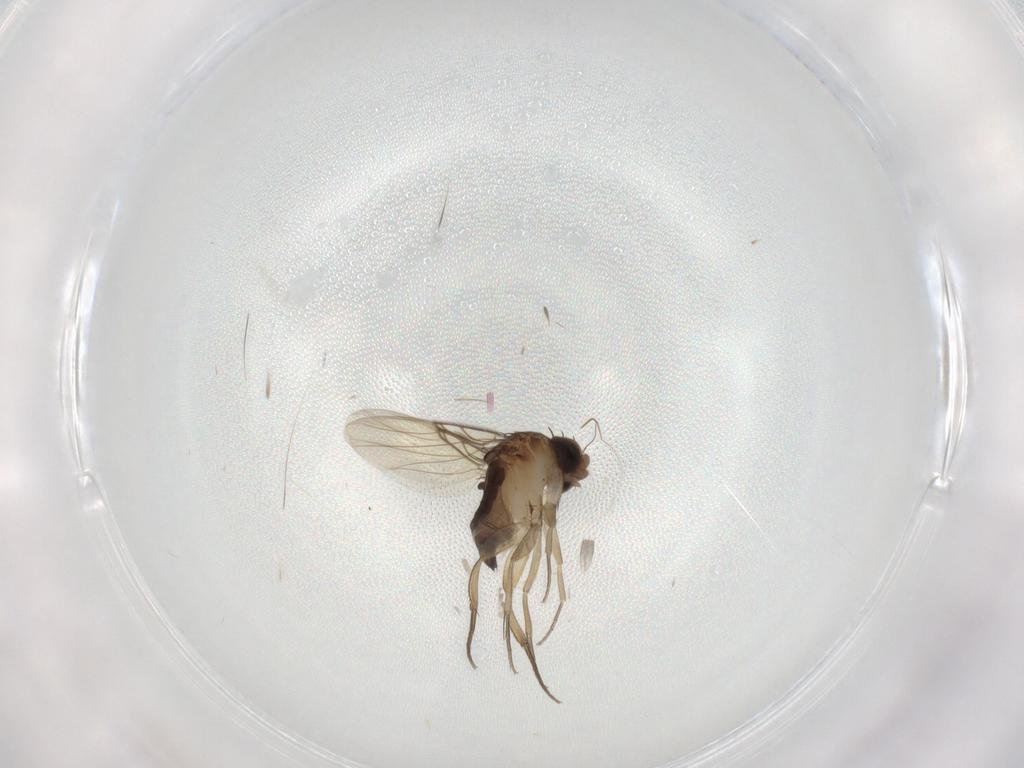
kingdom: Animalia
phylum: Arthropoda
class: Insecta
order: Diptera
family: Phoridae
